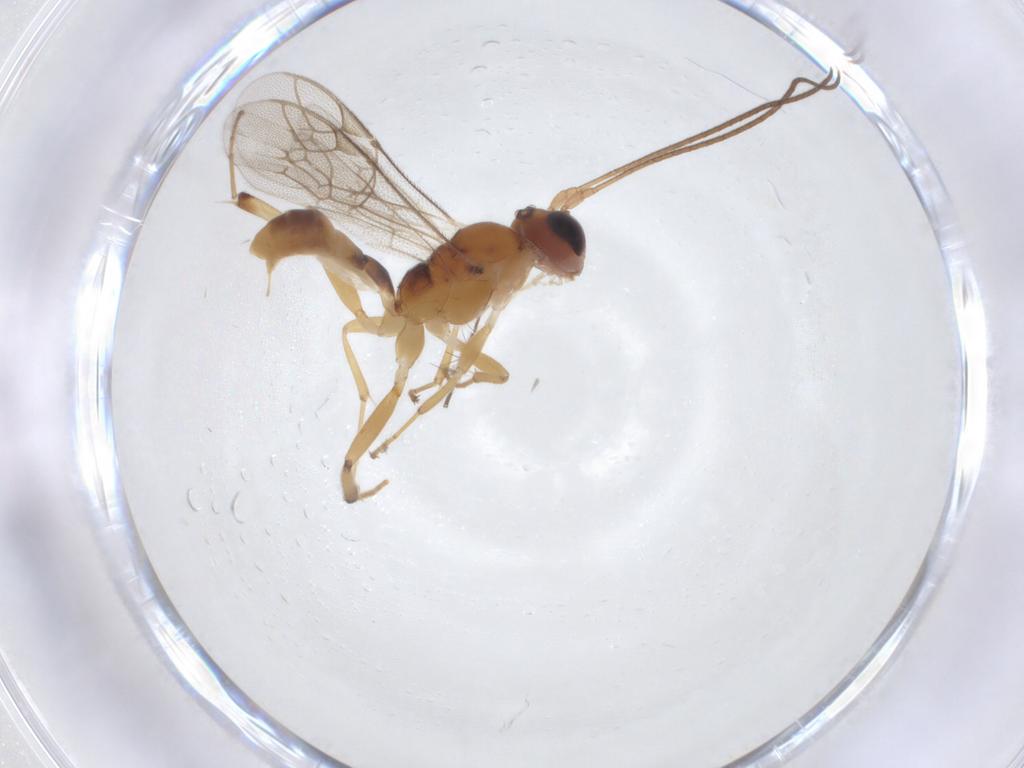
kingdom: Animalia
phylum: Arthropoda
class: Insecta
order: Hymenoptera
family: Ichneumonidae
